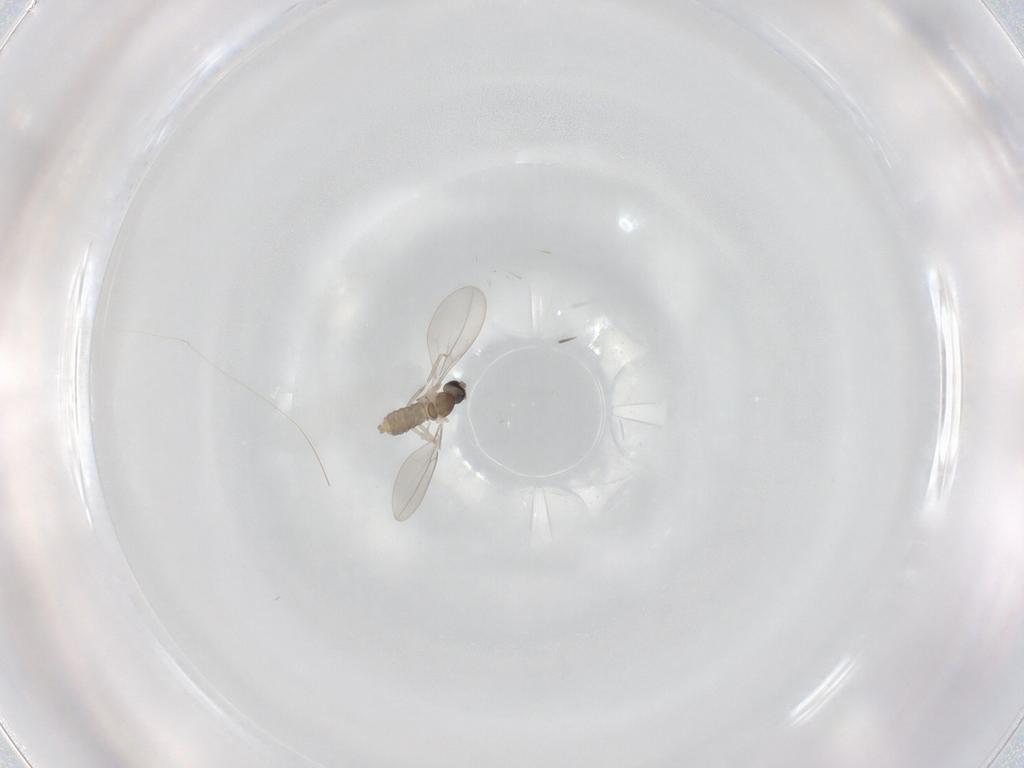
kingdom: Animalia
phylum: Arthropoda
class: Insecta
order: Diptera
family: Cecidomyiidae
